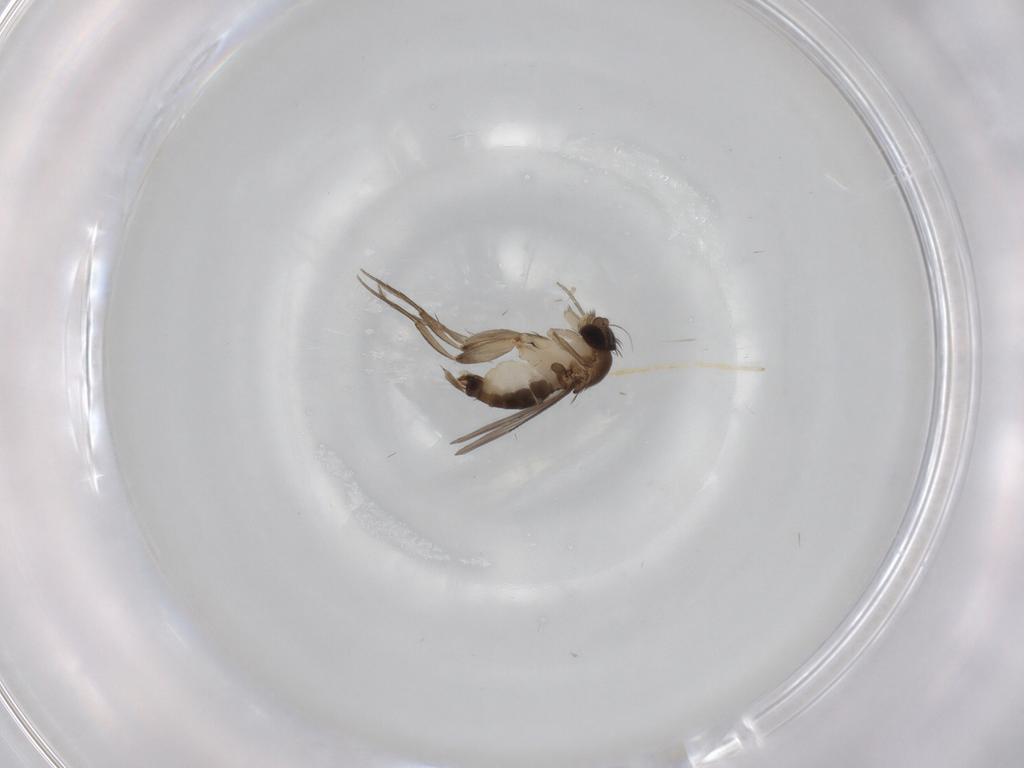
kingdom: Animalia
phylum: Arthropoda
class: Insecta
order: Diptera
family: Phoridae
